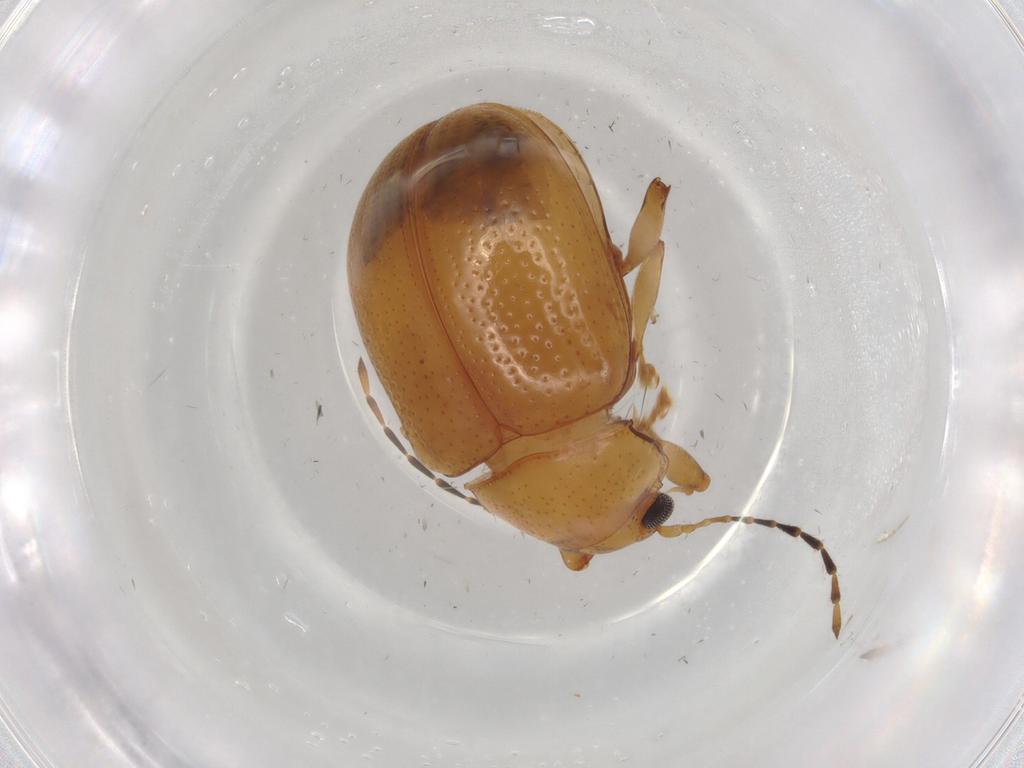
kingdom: Animalia
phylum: Arthropoda
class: Insecta
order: Coleoptera
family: Chrysomelidae
